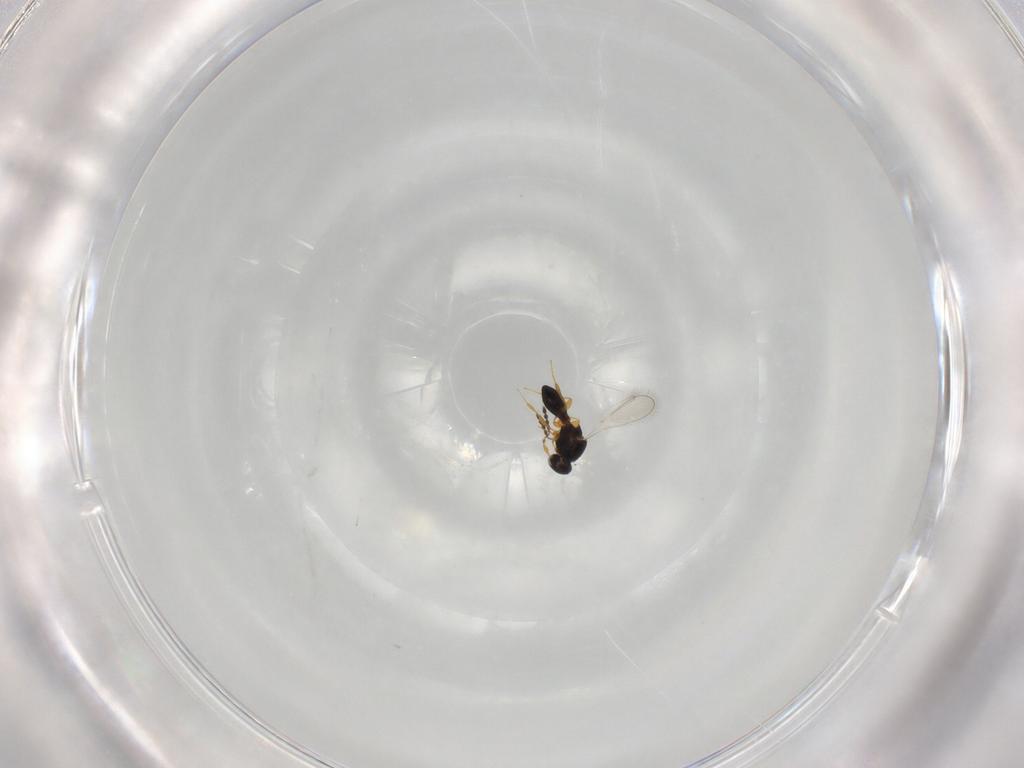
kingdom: Animalia
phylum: Arthropoda
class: Insecta
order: Hymenoptera
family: Platygastridae
